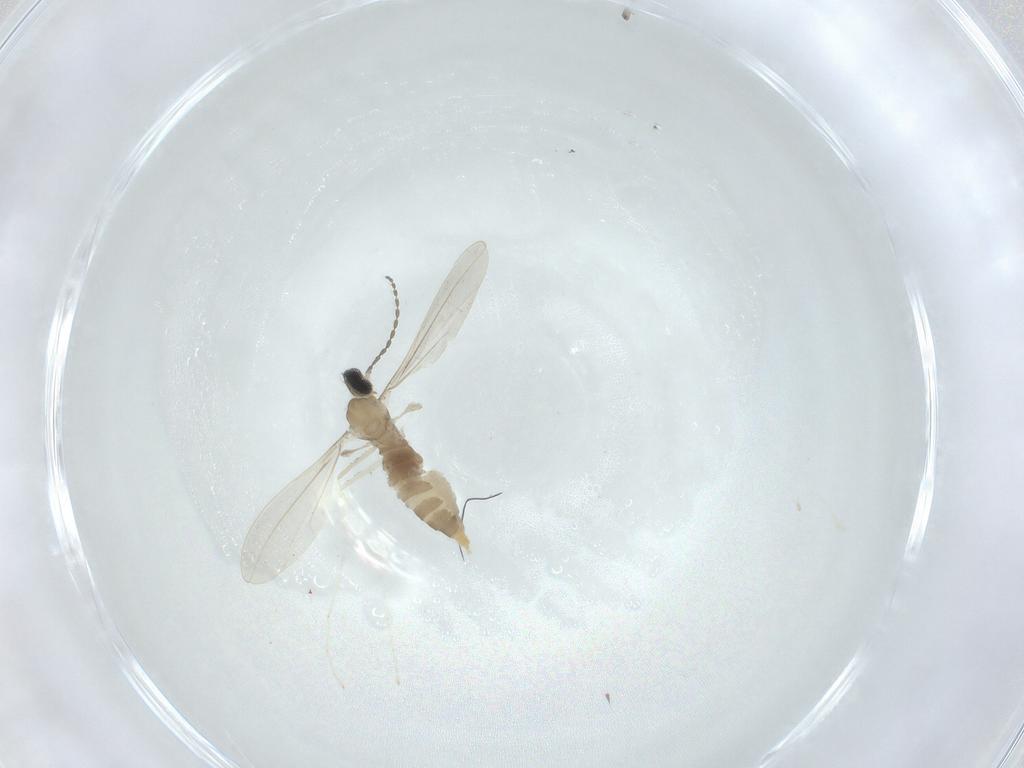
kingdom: Animalia
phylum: Arthropoda
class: Insecta
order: Diptera
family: Cecidomyiidae
